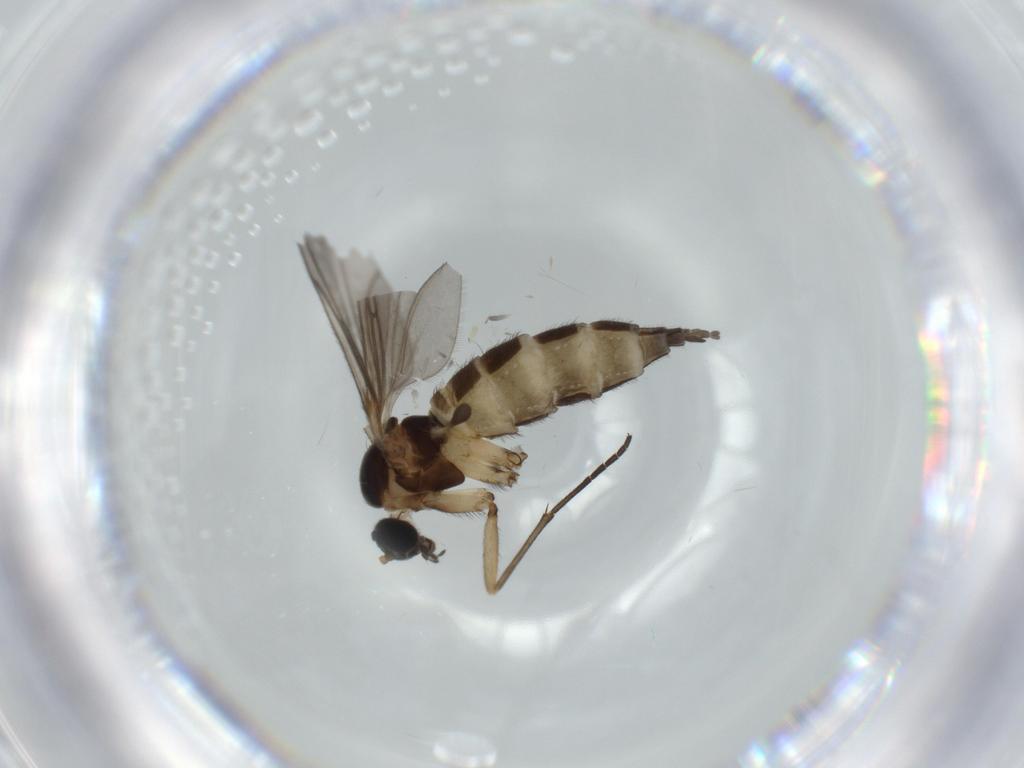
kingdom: Animalia
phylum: Arthropoda
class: Insecta
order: Diptera
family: Sciaridae
